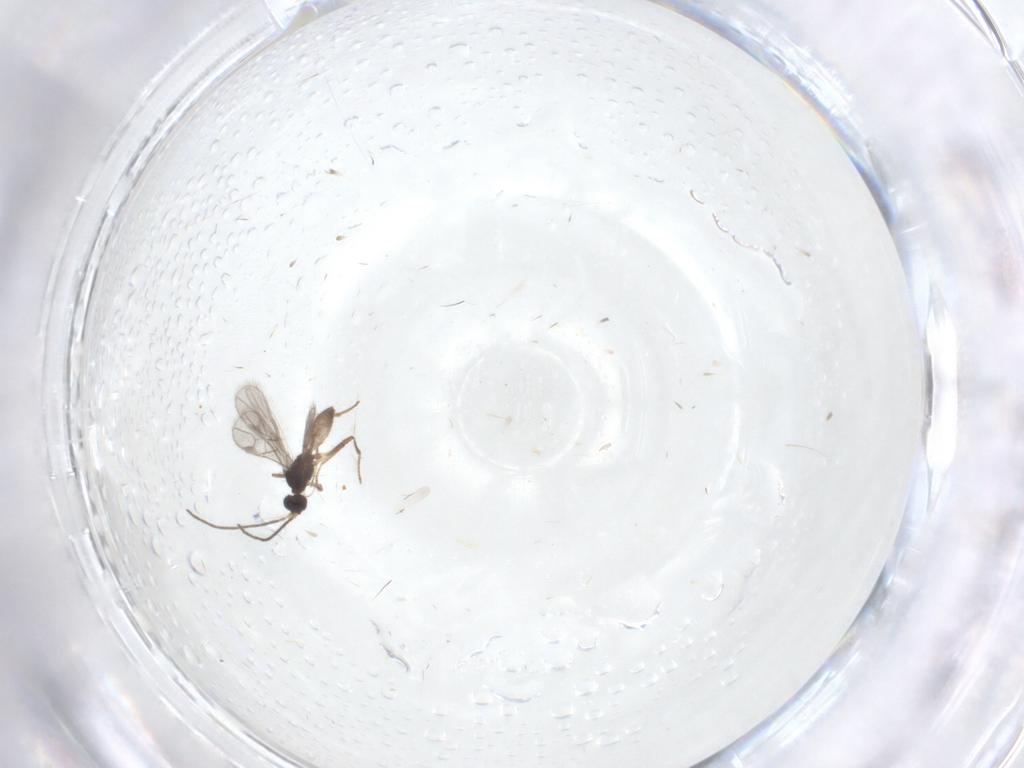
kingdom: Animalia
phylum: Arthropoda
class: Insecta
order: Hymenoptera
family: Formicidae
